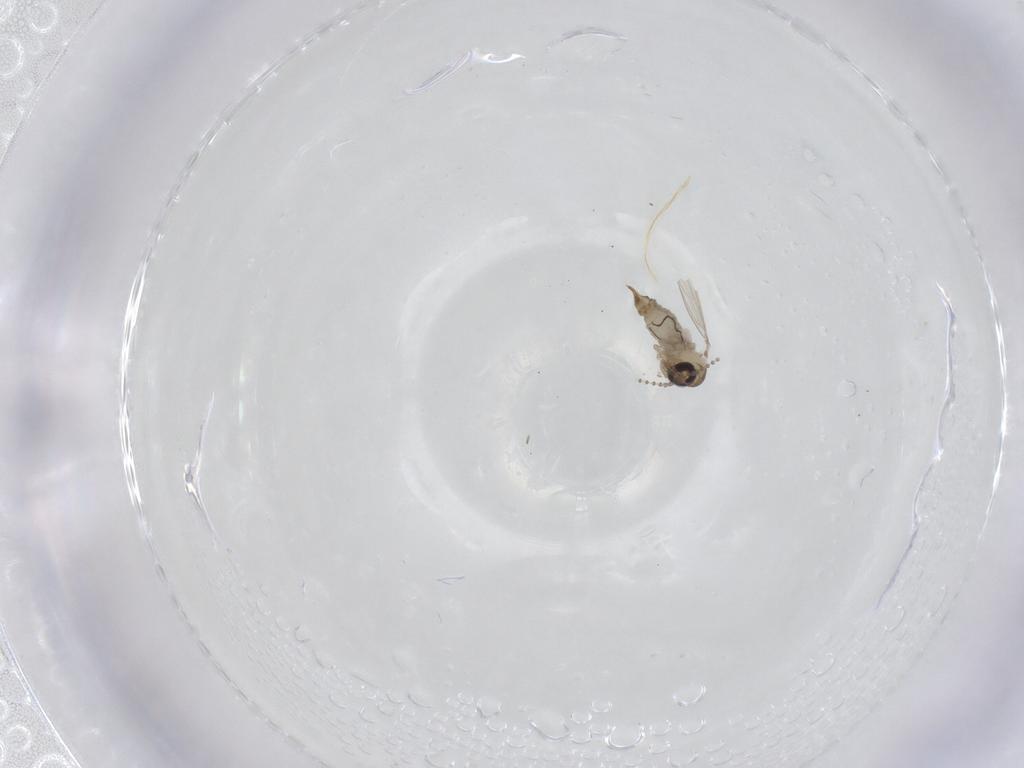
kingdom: Animalia
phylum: Arthropoda
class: Insecta
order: Diptera
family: Psychodidae
